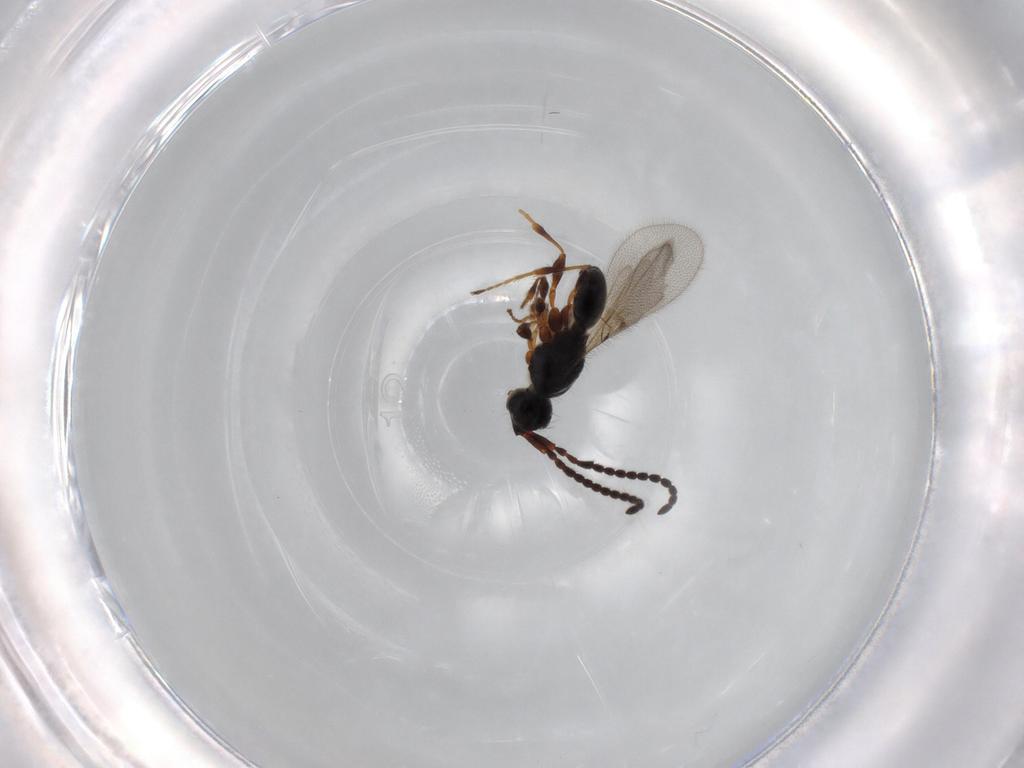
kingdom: Animalia
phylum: Arthropoda
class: Insecta
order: Hymenoptera
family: Diapriidae
